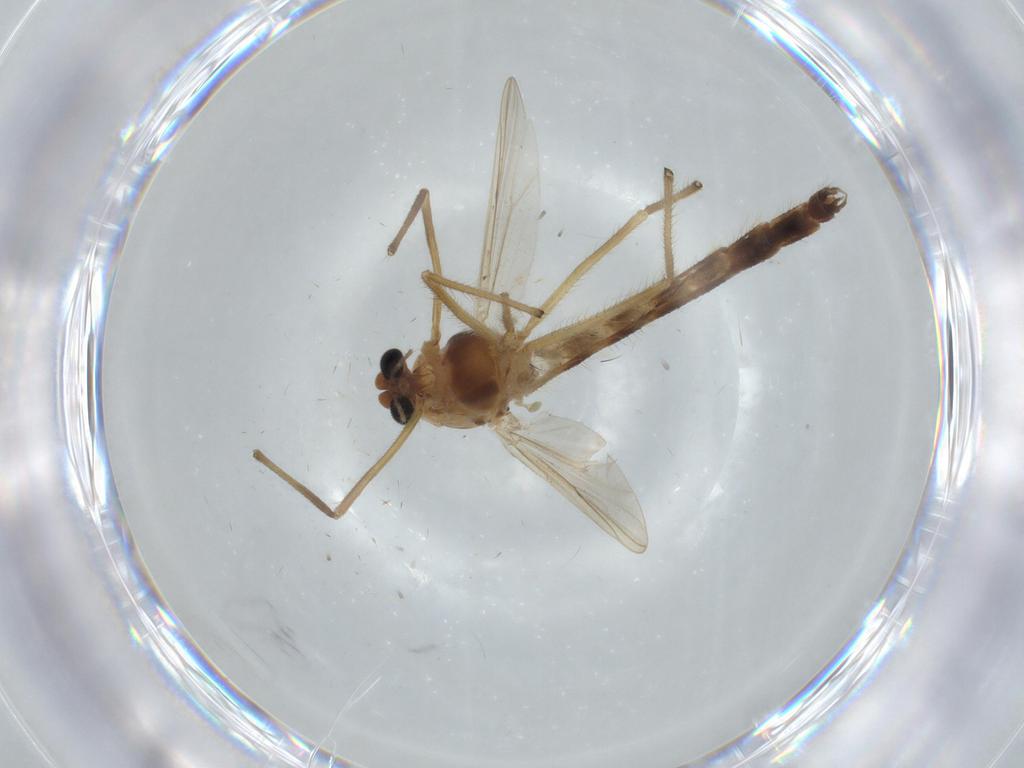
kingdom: Animalia
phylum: Arthropoda
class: Insecta
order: Diptera
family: Chironomidae
